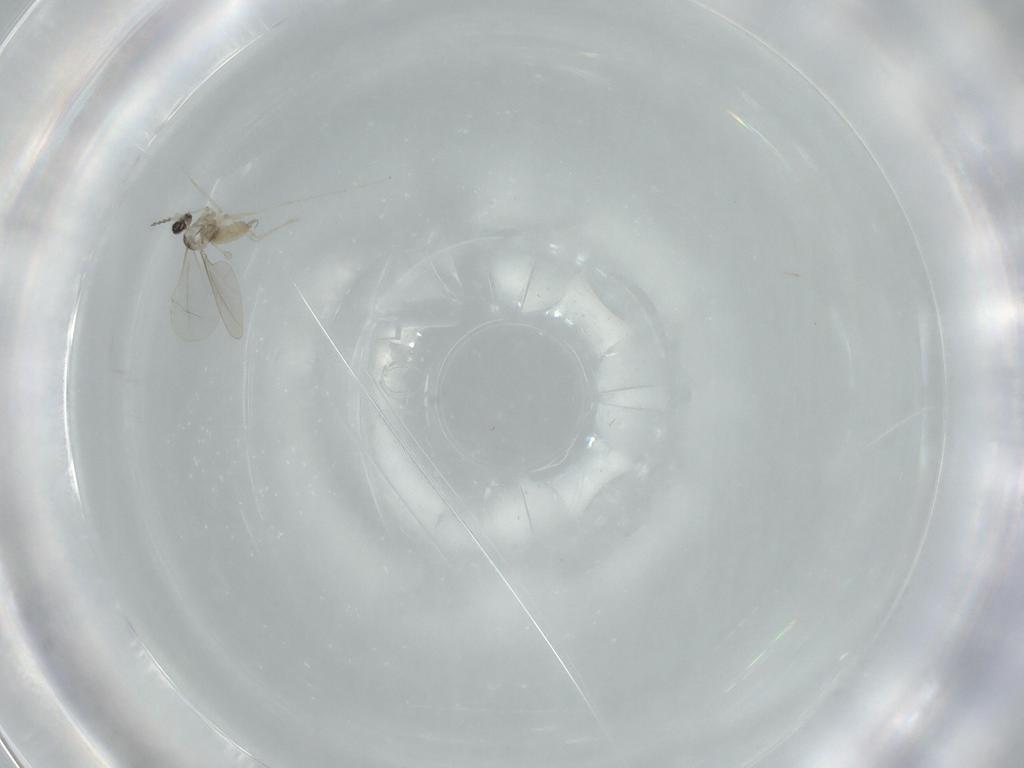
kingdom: Animalia
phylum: Arthropoda
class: Insecta
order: Diptera
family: Cecidomyiidae
